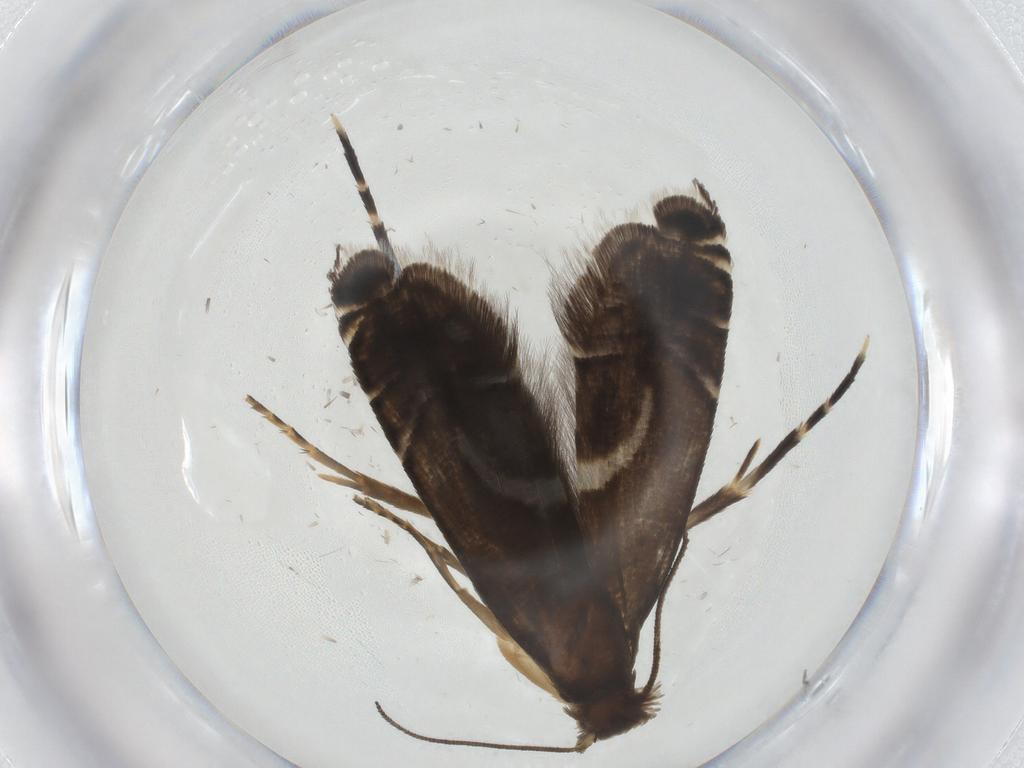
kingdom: Animalia
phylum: Arthropoda
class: Insecta
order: Lepidoptera
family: Glyphipterigidae
